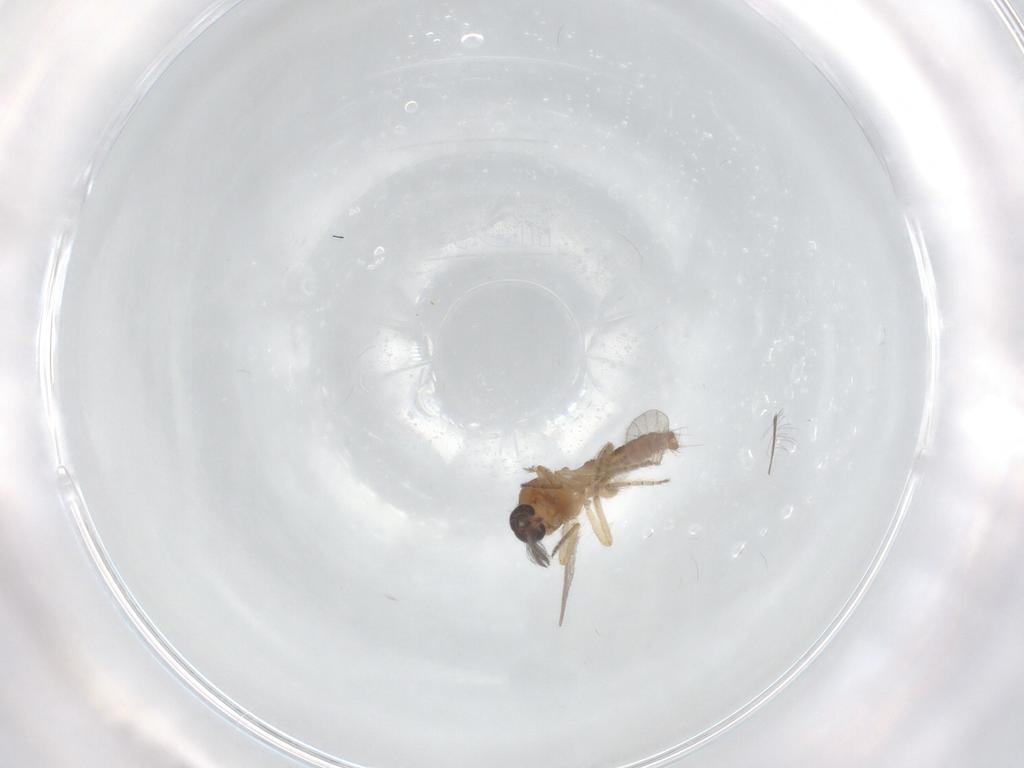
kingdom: Animalia
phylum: Arthropoda
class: Insecta
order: Diptera
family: Ceratopogonidae
